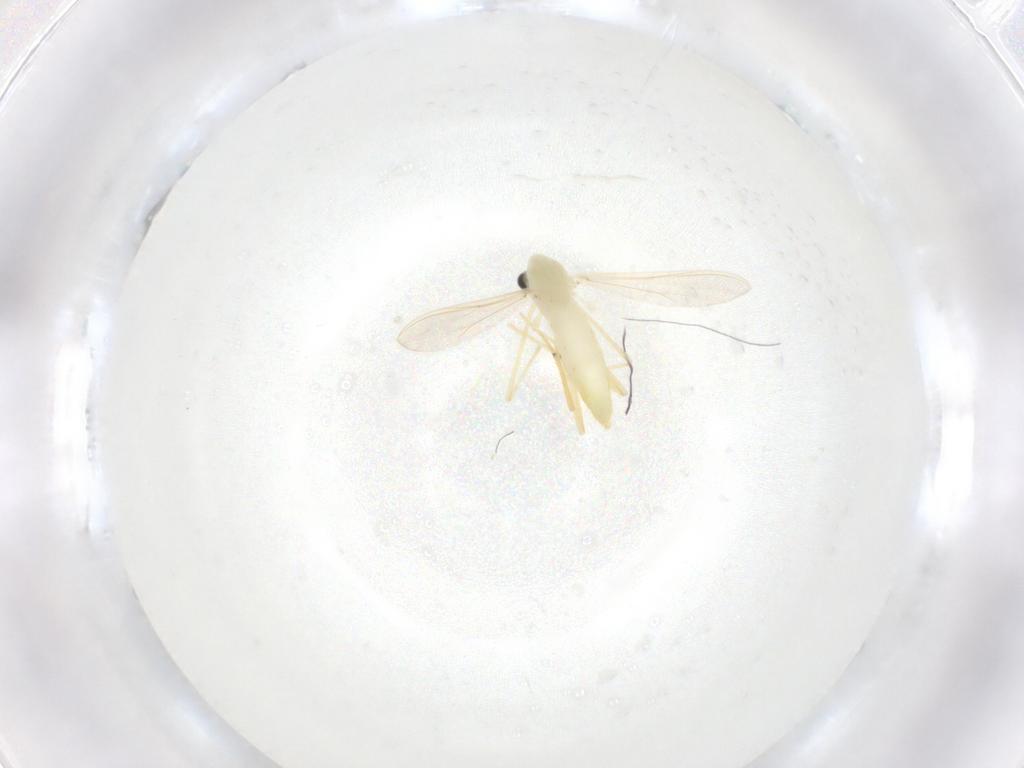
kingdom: Animalia
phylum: Arthropoda
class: Insecta
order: Diptera
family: Chironomidae
